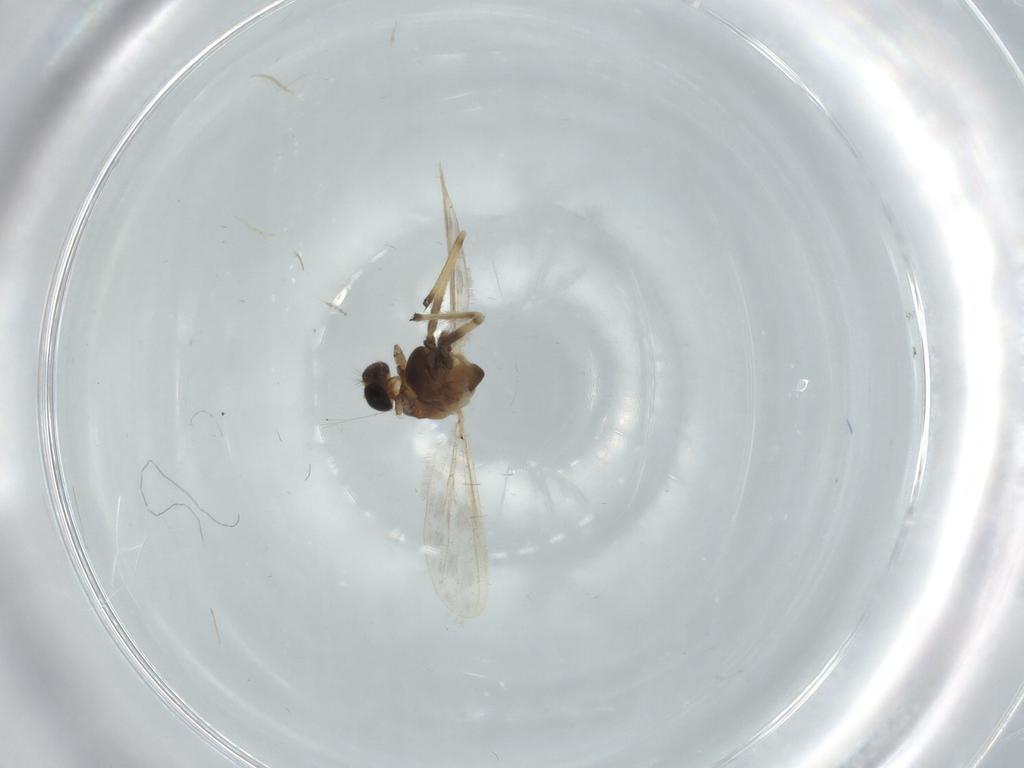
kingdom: Animalia
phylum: Arthropoda
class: Insecta
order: Diptera
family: Chironomidae
